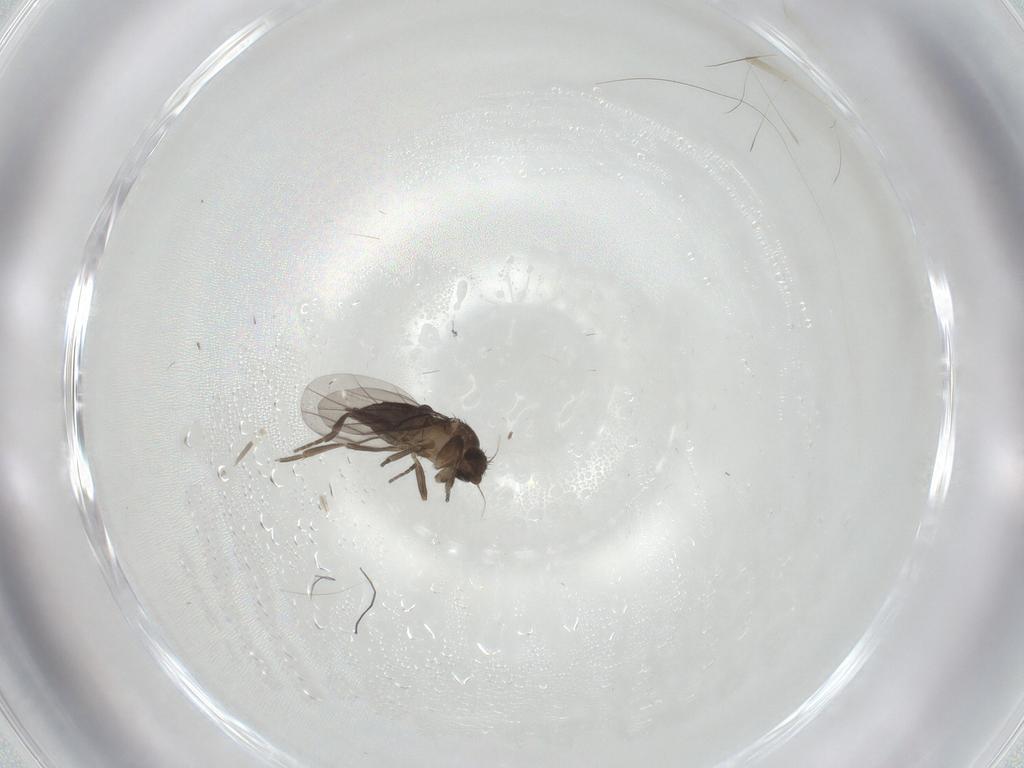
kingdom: Animalia
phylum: Arthropoda
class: Insecta
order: Diptera
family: Phoridae
